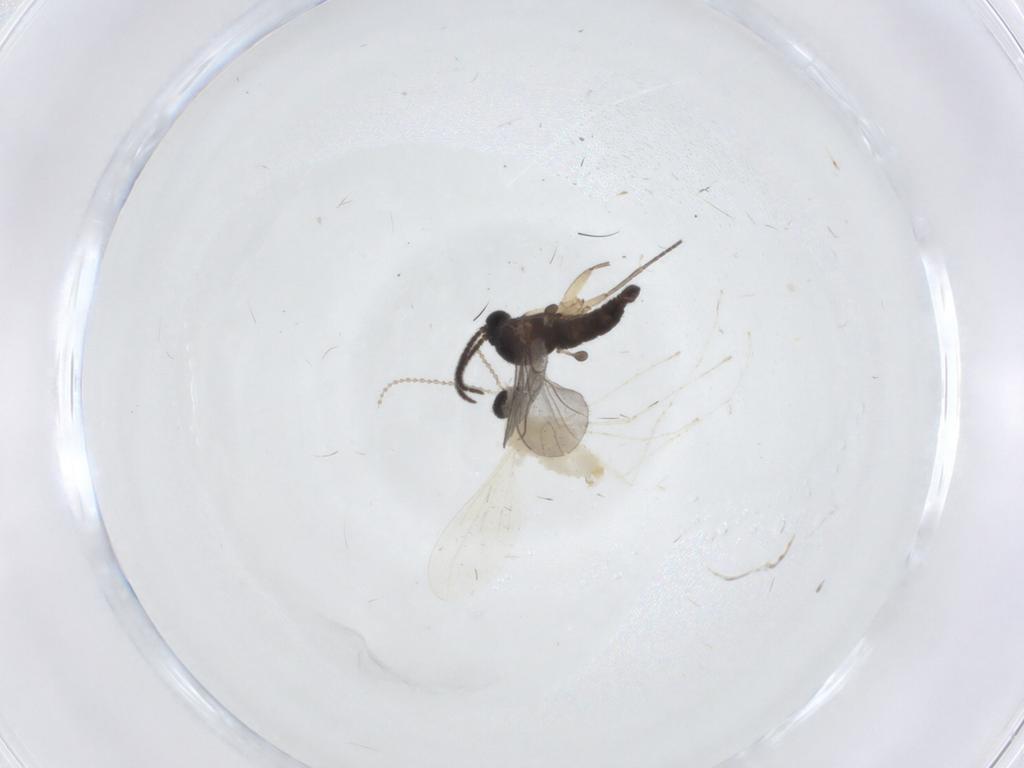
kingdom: Animalia
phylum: Arthropoda
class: Insecta
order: Diptera
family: Sciaridae
